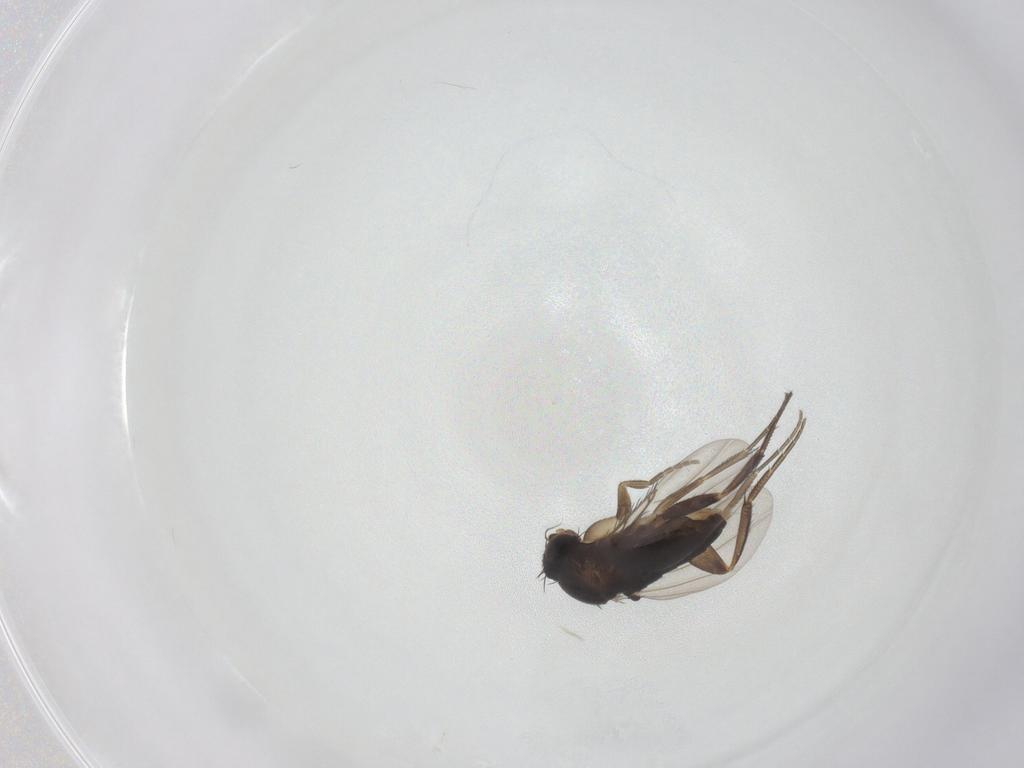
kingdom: Animalia
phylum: Arthropoda
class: Insecta
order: Diptera
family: Phoridae
